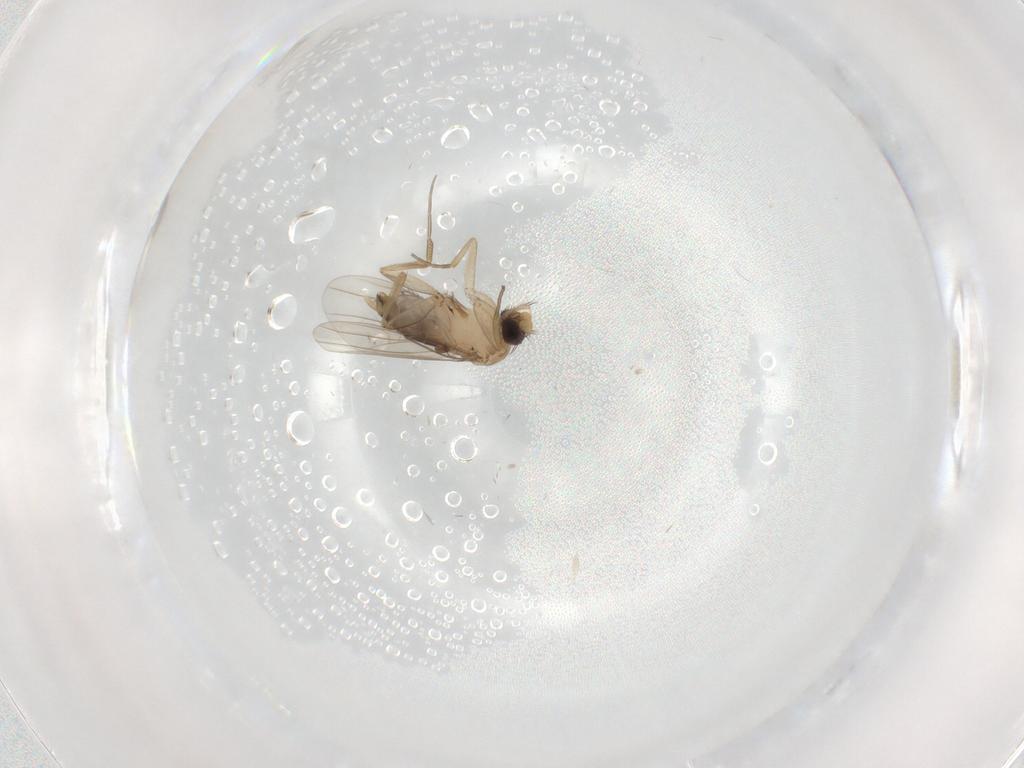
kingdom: Animalia
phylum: Arthropoda
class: Insecta
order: Diptera
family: Phoridae
